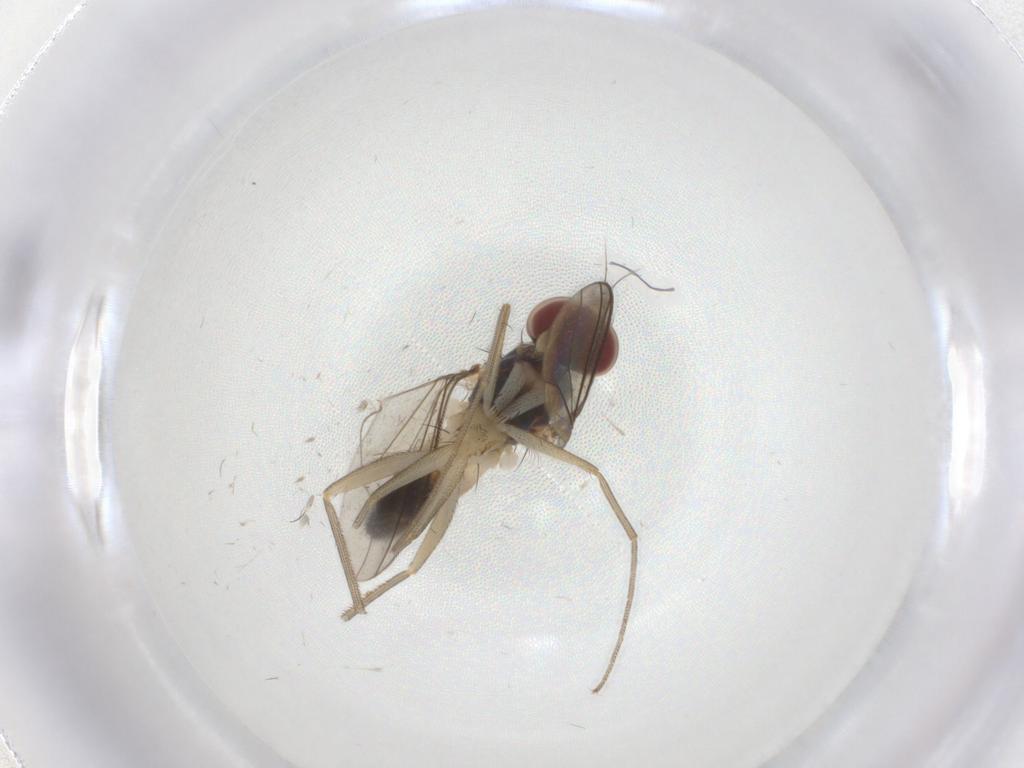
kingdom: Animalia
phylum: Arthropoda
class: Insecta
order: Diptera
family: Dolichopodidae
